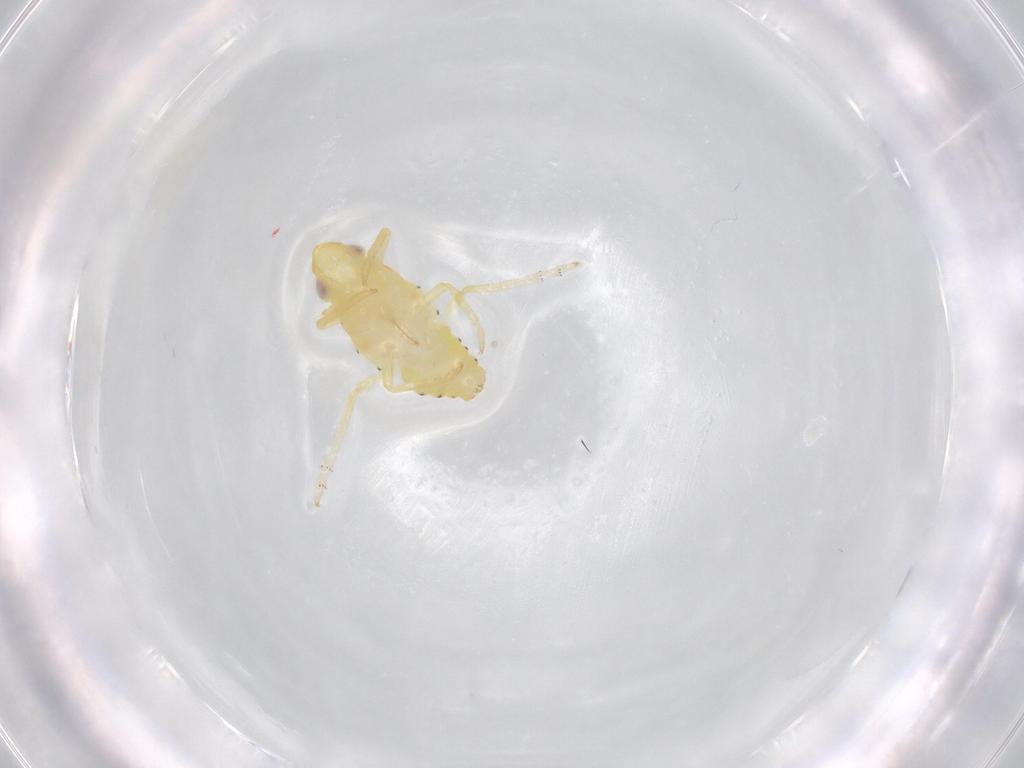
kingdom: Animalia
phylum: Arthropoda
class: Insecta
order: Hemiptera
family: Tropiduchidae
